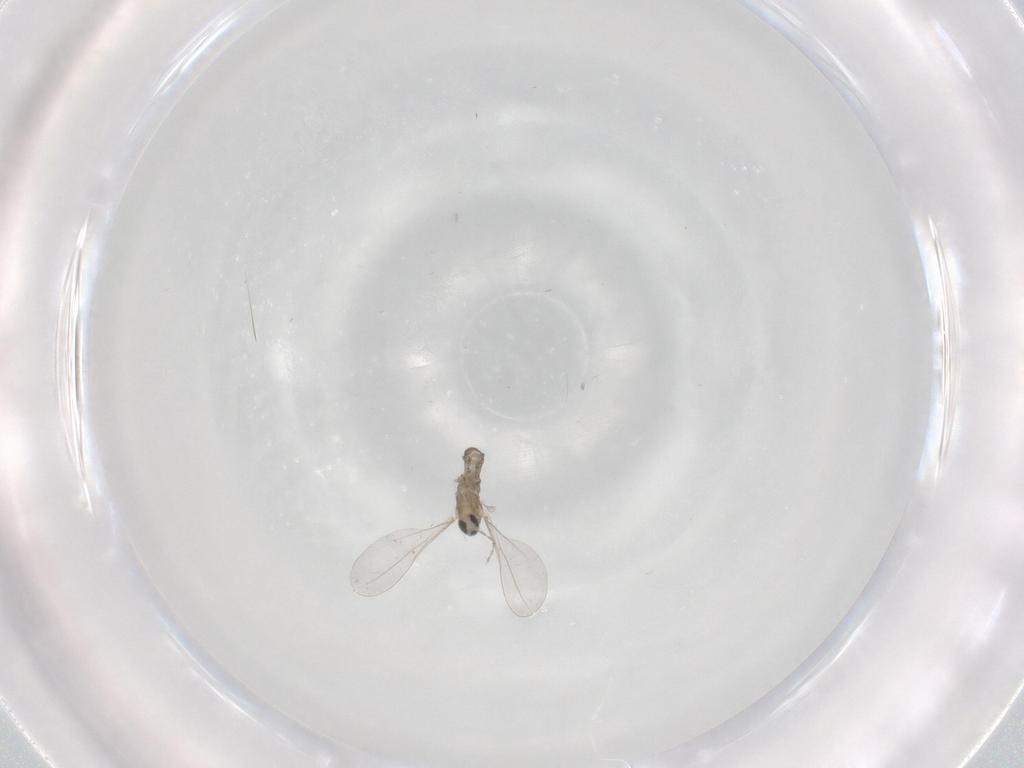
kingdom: Animalia
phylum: Arthropoda
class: Insecta
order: Diptera
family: Cecidomyiidae
